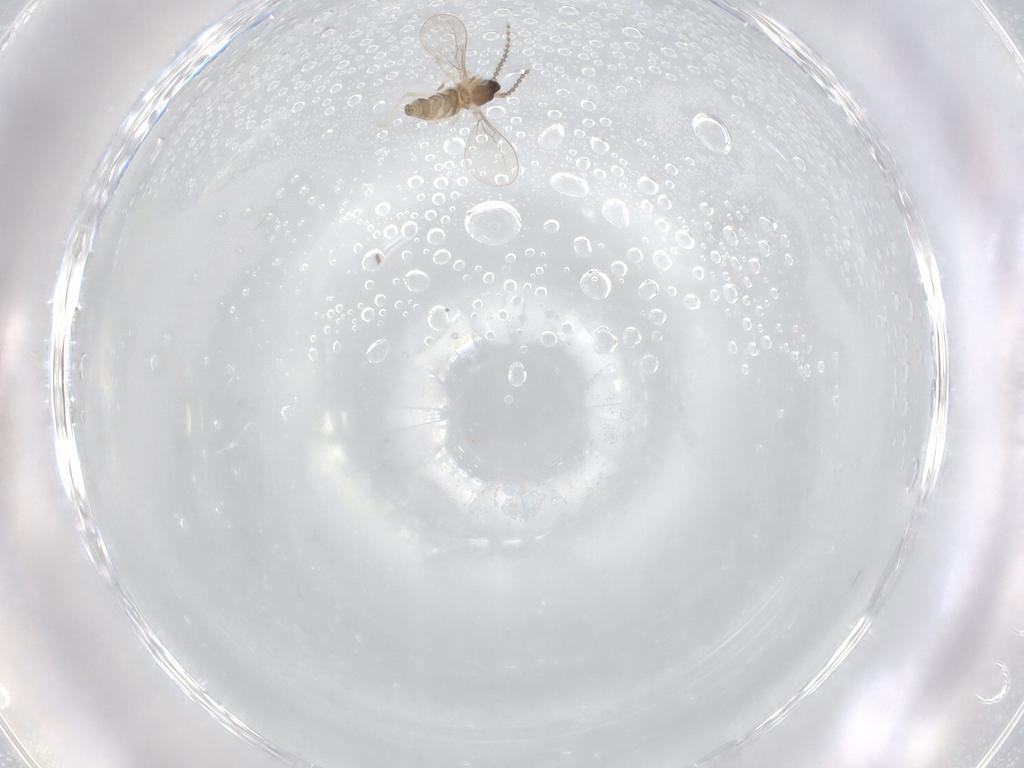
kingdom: Animalia
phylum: Arthropoda
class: Insecta
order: Diptera
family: Cecidomyiidae
